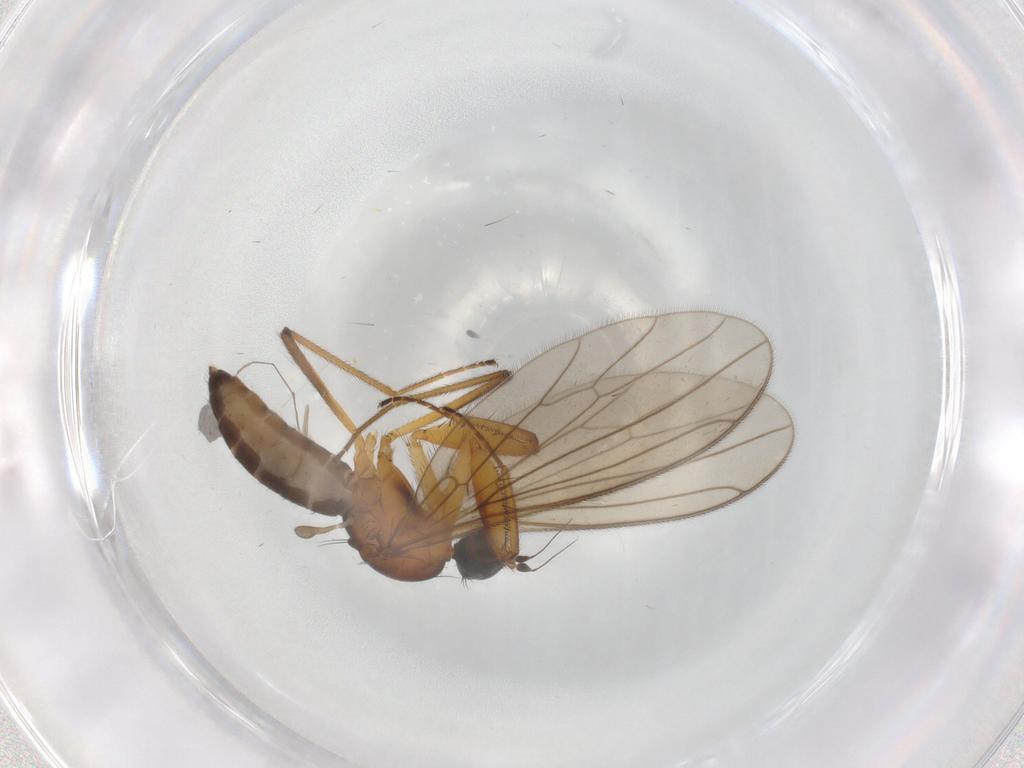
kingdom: Animalia
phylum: Arthropoda
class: Insecta
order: Diptera
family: Empididae
